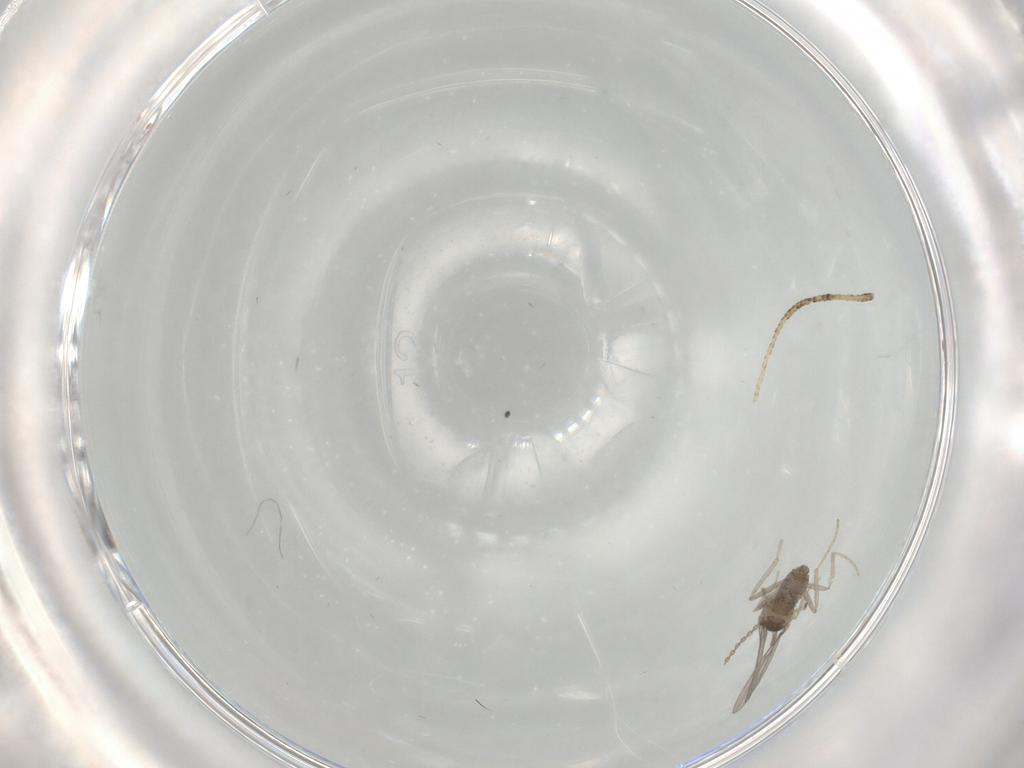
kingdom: Animalia
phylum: Arthropoda
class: Insecta
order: Diptera
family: Cecidomyiidae
